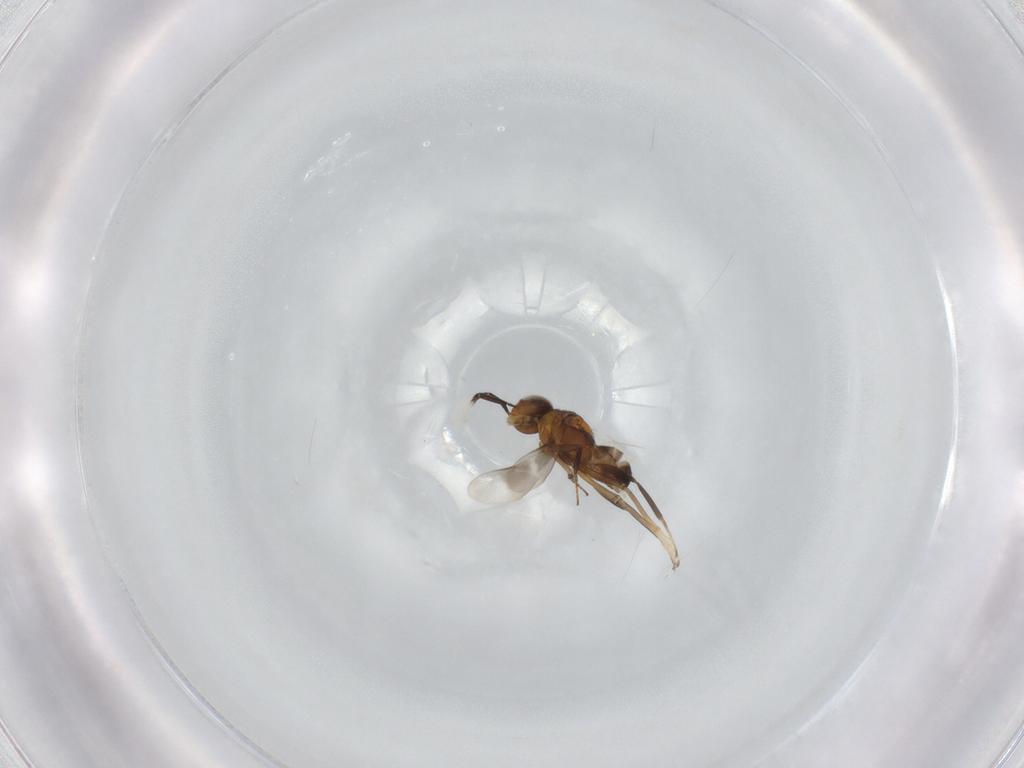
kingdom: Animalia
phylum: Arthropoda
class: Insecta
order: Hymenoptera
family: Encyrtidae
